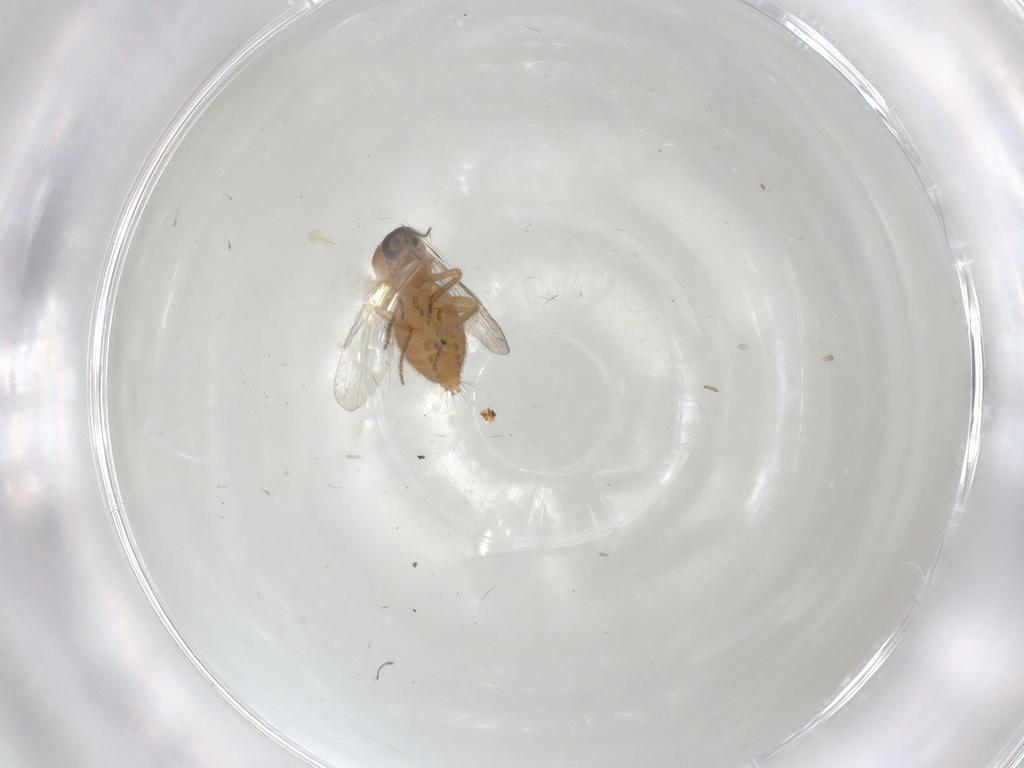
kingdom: Animalia
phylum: Arthropoda
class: Insecta
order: Diptera
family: Ceratopogonidae
